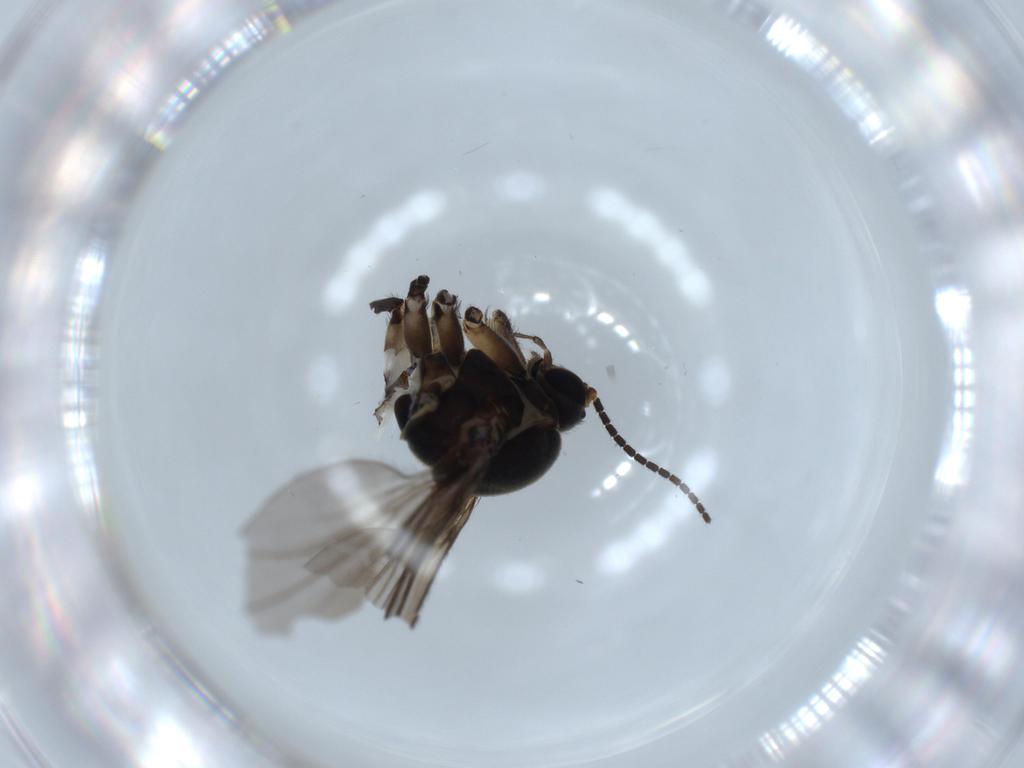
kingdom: Animalia
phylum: Arthropoda
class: Insecta
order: Diptera
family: Sciaridae
